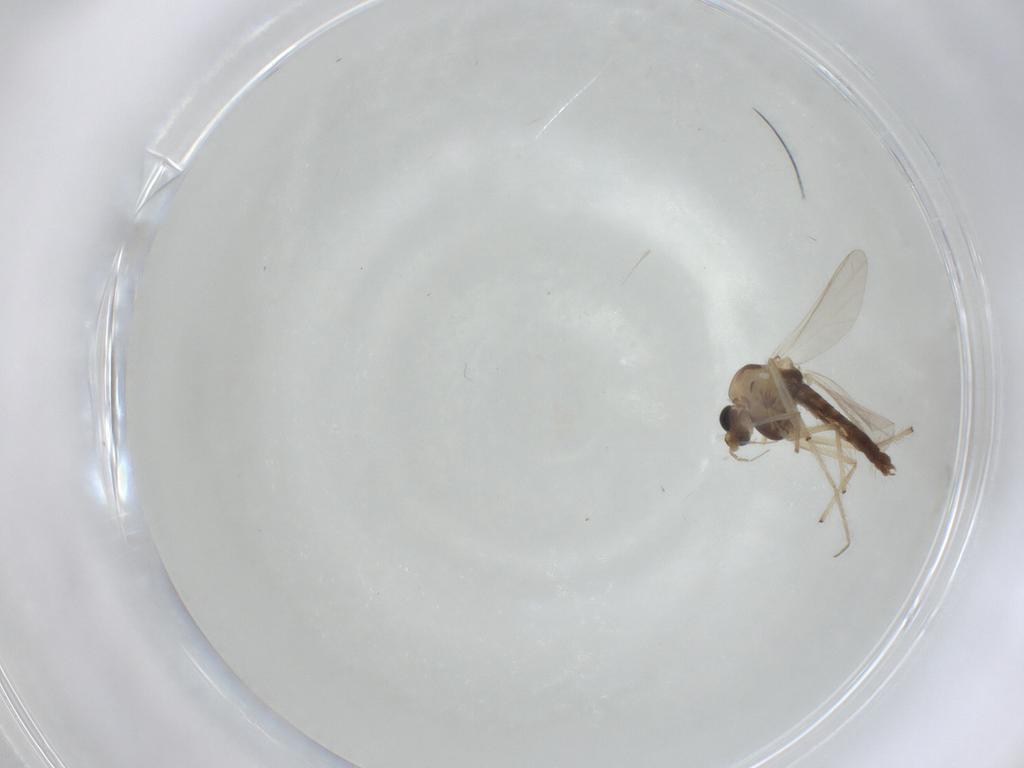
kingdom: Animalia
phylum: Arthropoda
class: Insecta
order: Diptera
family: Chironomidae
